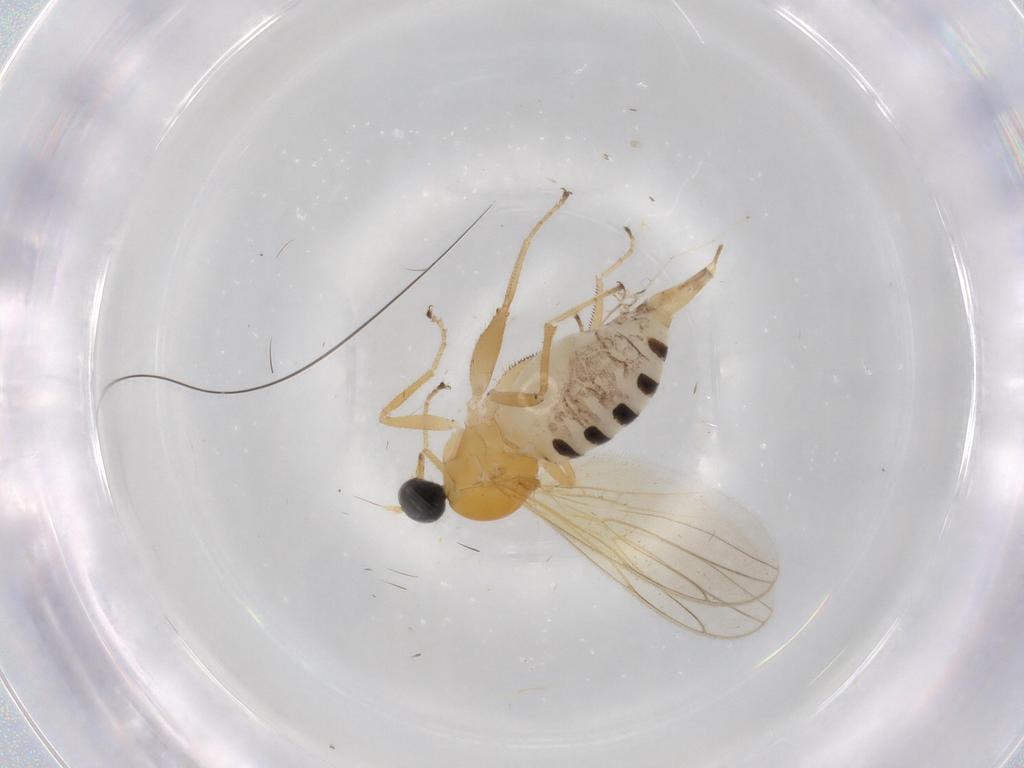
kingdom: Animalia
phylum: Arthropoda
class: Insecta
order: Diptera
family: Hybotidae
